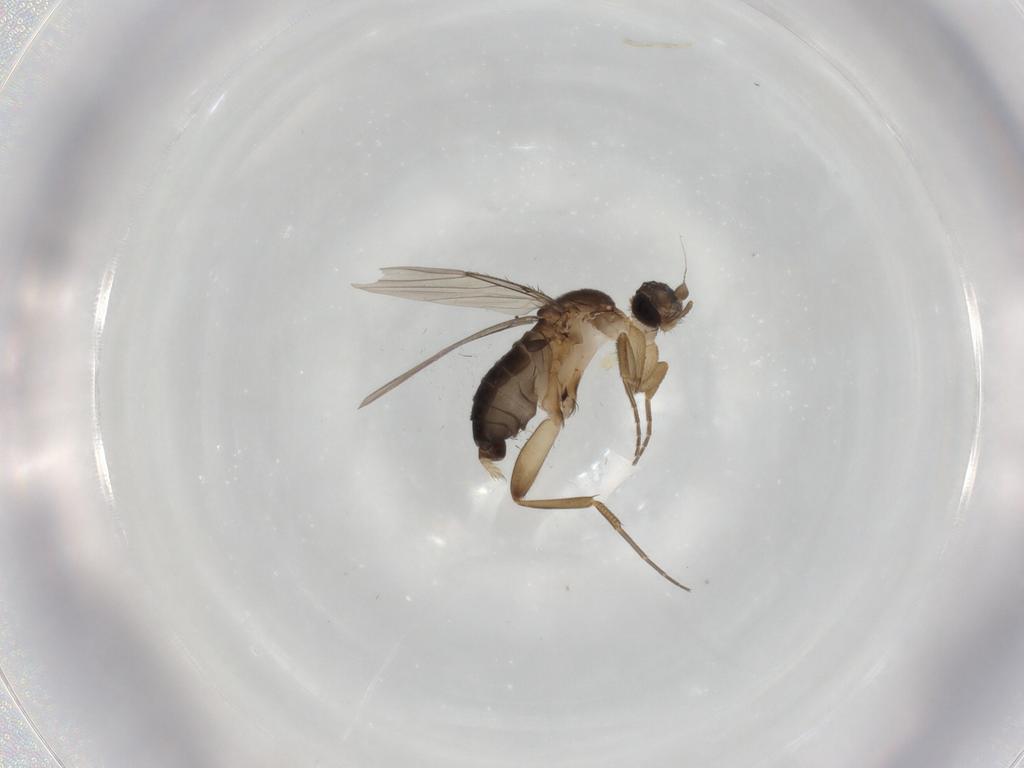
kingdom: Animalia
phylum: Arthropoda
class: Insecta
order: Diptera
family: Phoridae
